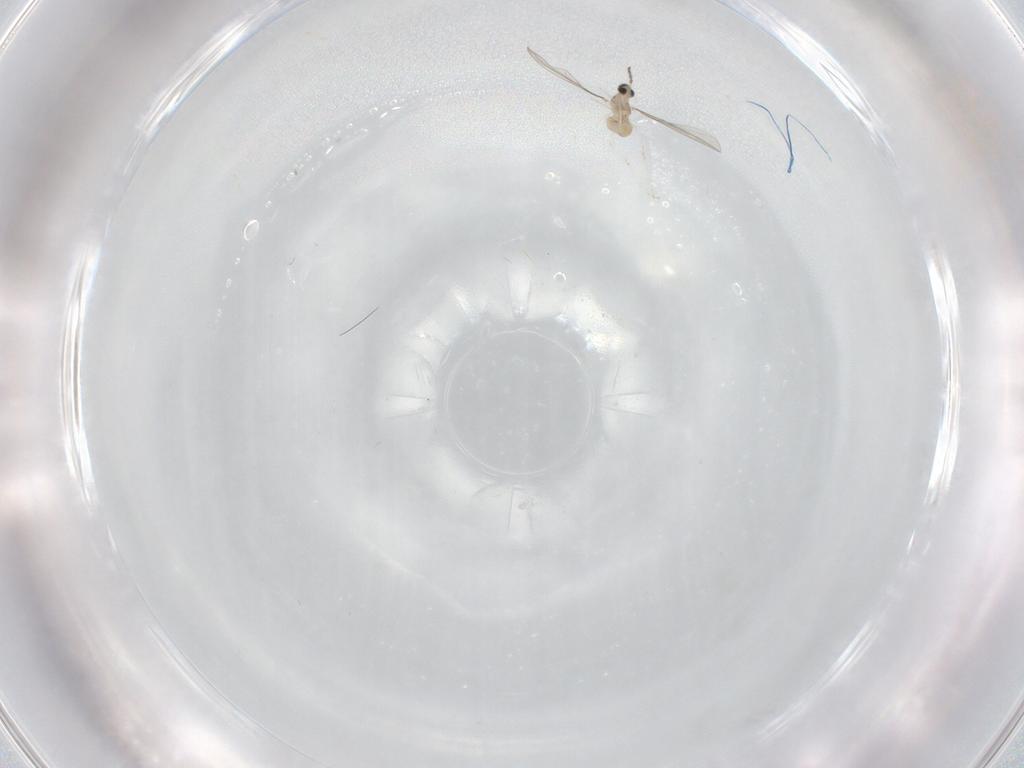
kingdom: Animalia
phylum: Arthropoda
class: Insecta
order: Diptera
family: Cecidomyiidae
